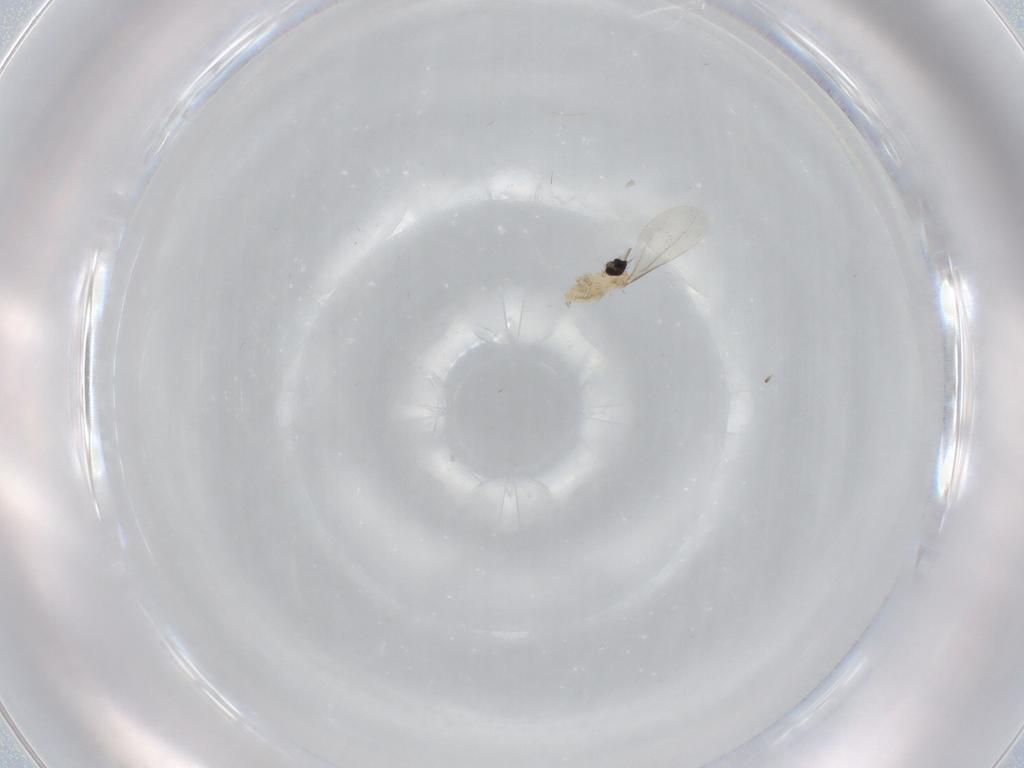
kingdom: Animalia
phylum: Arthropoda
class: Insecta
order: Diptera
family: Cecidomyiidae
